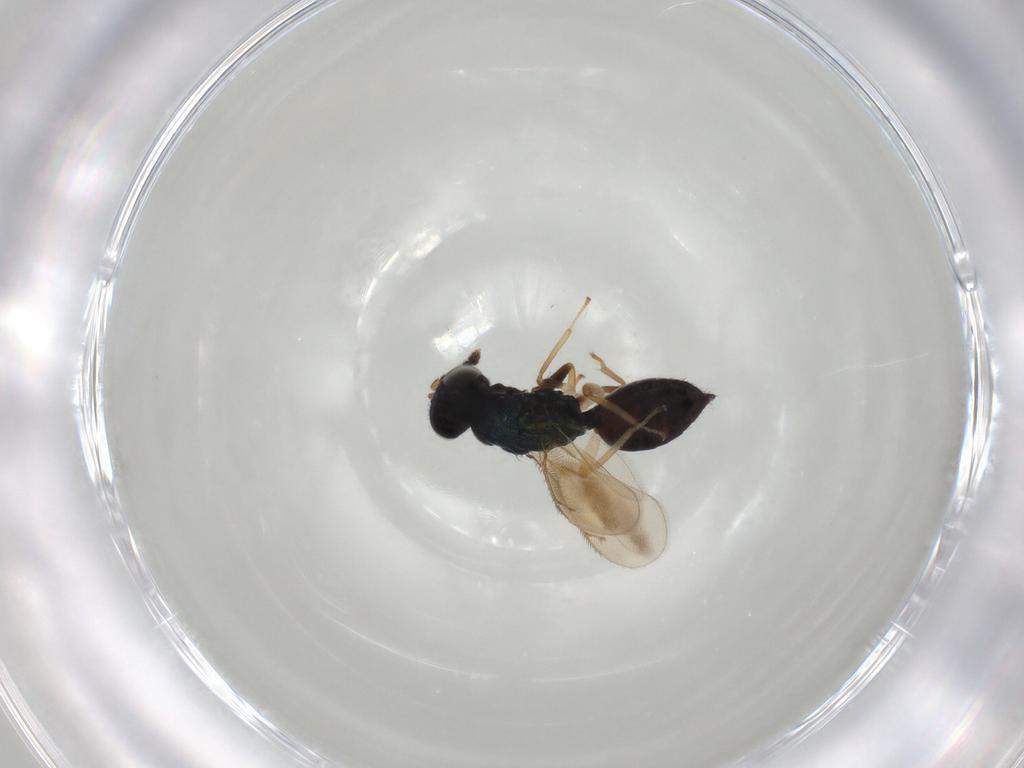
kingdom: Animalia
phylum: Arthropoda
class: Insecta
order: Hymenoptera
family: Eulophidae
